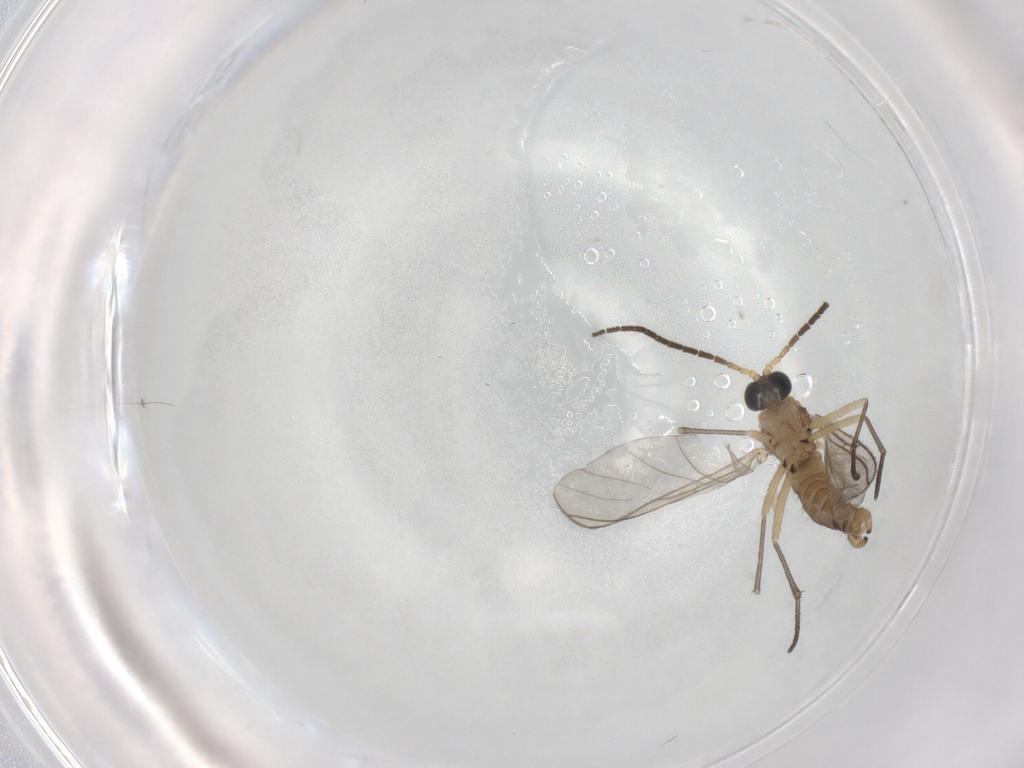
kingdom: Animalia
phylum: Arthropoda
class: Insecta
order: Diptera
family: Sciaridae
